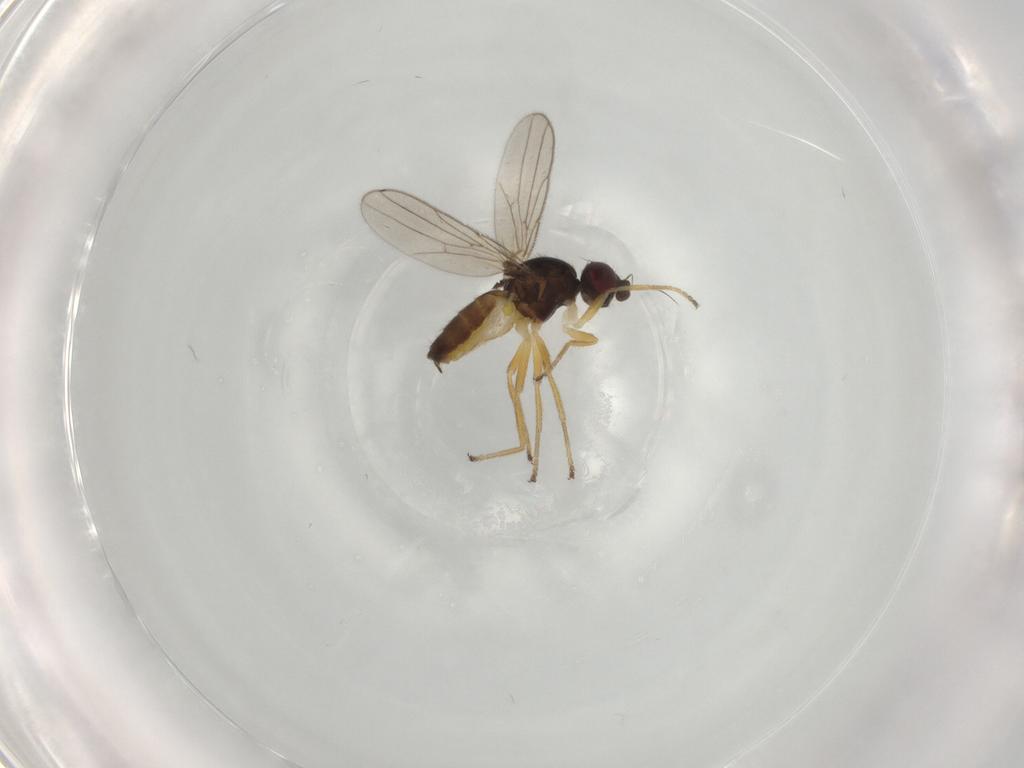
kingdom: Animalia
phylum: Arthropoda
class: Insecta
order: Diptera
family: Chloropidae
